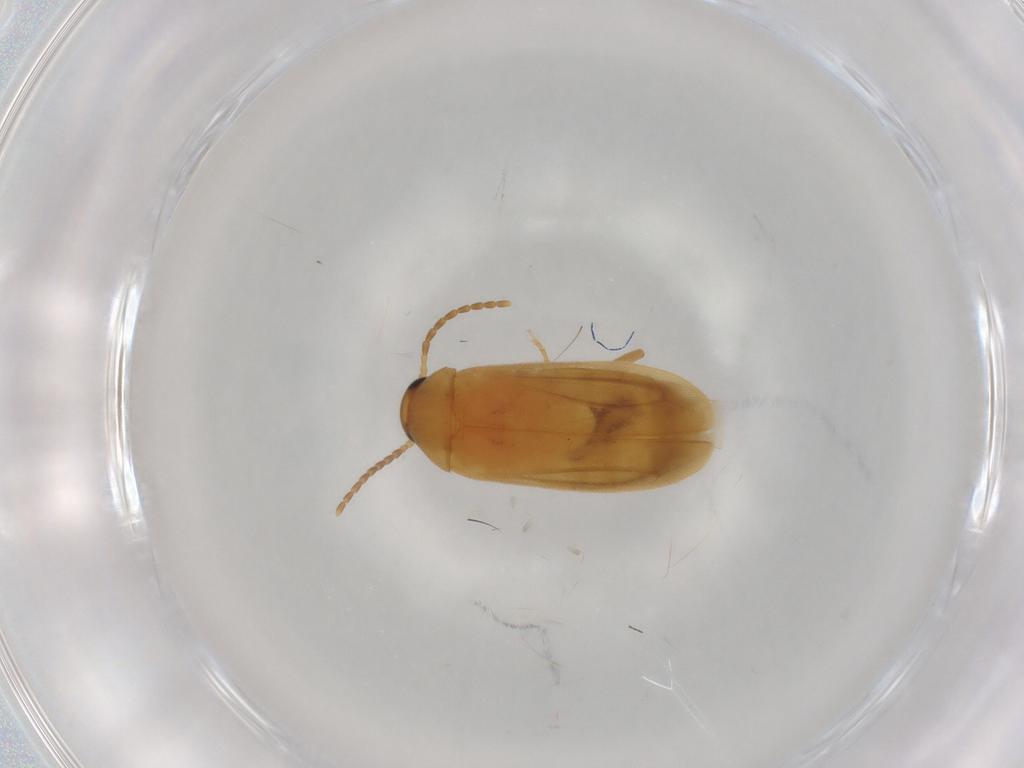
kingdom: Animalia
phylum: Arthropoda
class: Insecta
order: Coleoptera
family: Scraptiidae
